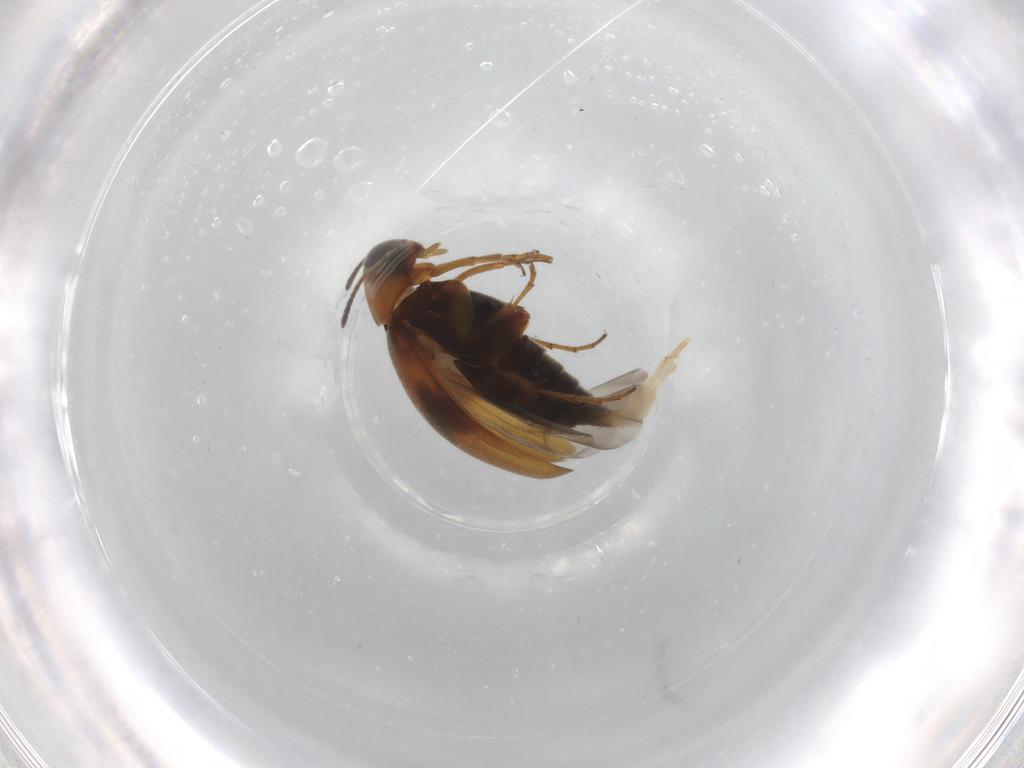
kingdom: Animalia
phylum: Arthropoda
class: Insecta
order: Coleoptera
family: Scraptiidae
